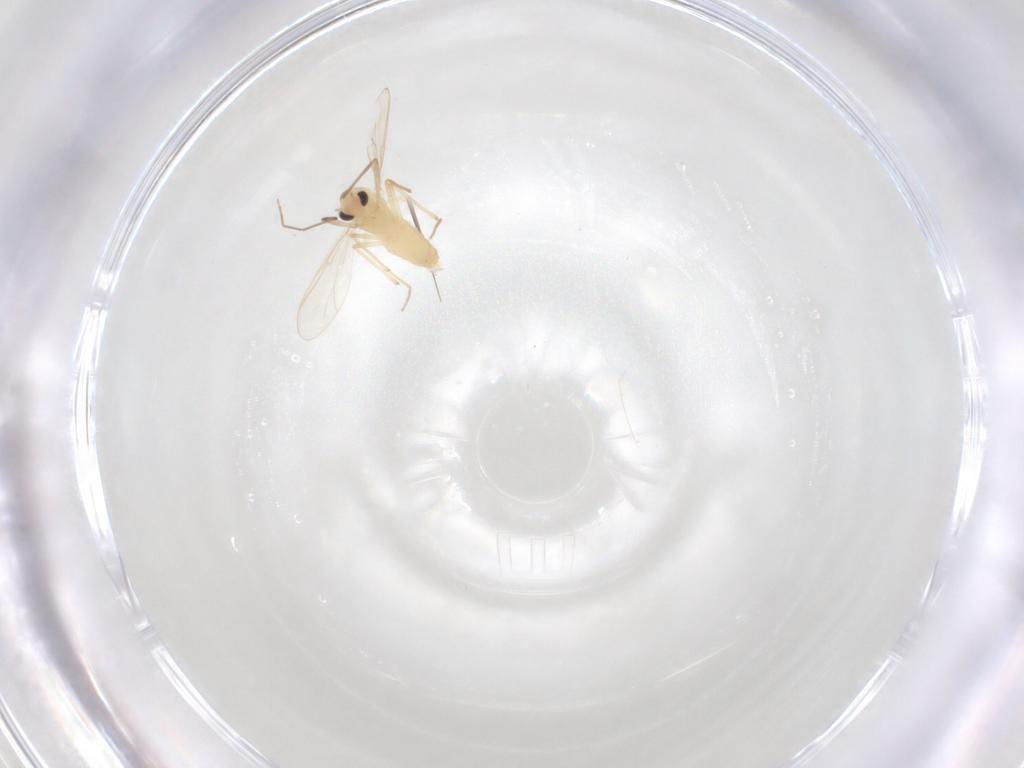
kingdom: Animalia
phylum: Arthropoda
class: Insecta
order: Diptera
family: Chironomidae
